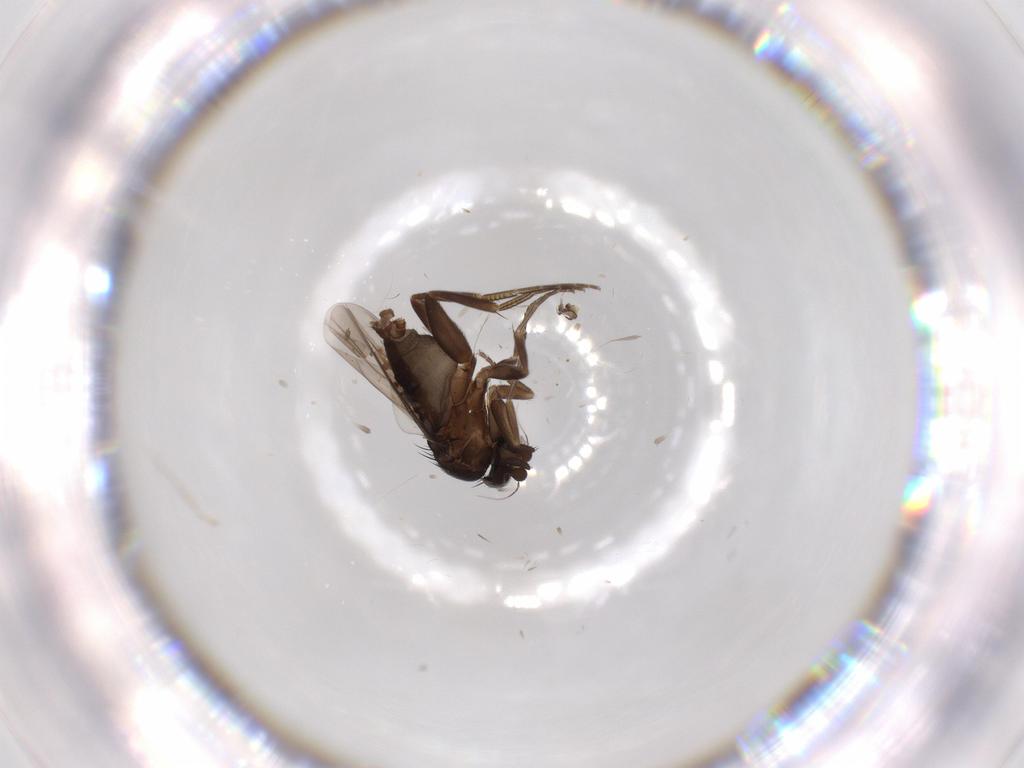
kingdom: Animalia
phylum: Arthropoda
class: Insecta
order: Diptera
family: Phoridae
